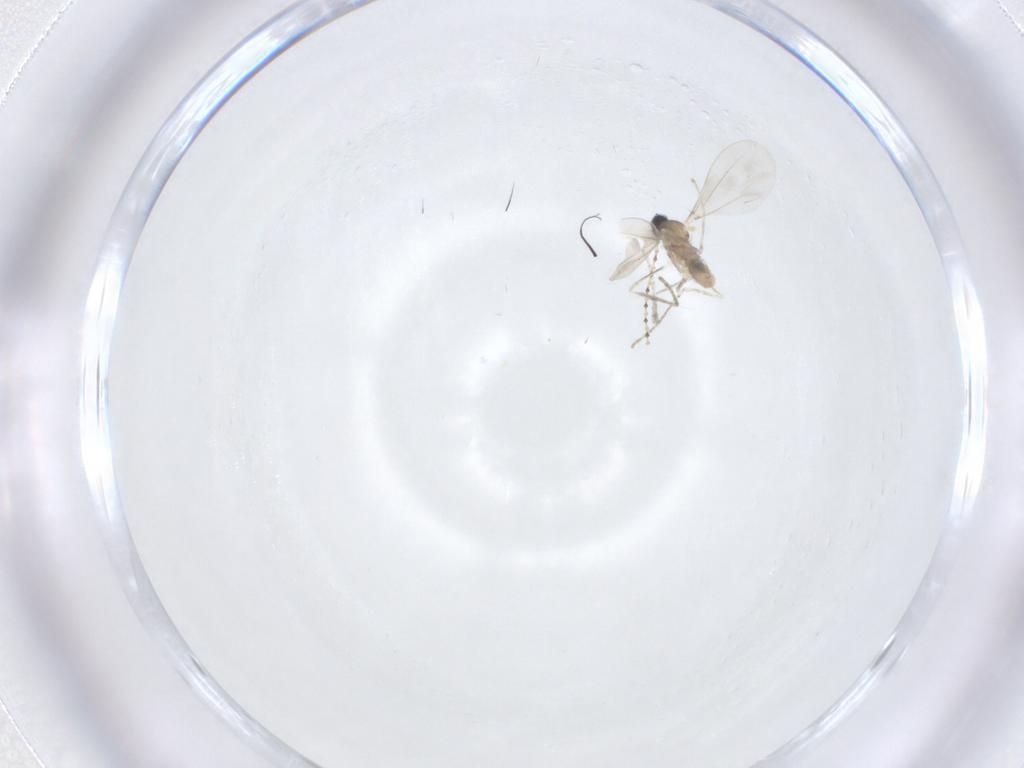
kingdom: Animalia
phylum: Arthropoda
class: Insecta
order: Diptera
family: Cecidomyiidae
